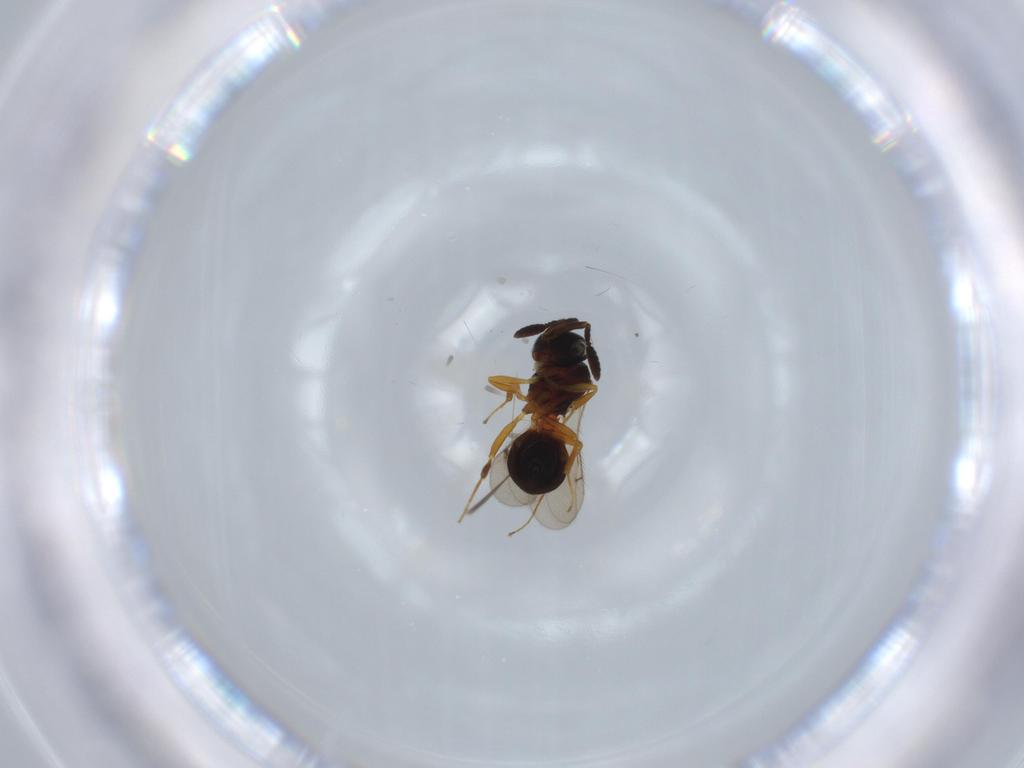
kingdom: Animalia
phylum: Arthropoda
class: Insecta
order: Hymenoptera
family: Scelionidae
